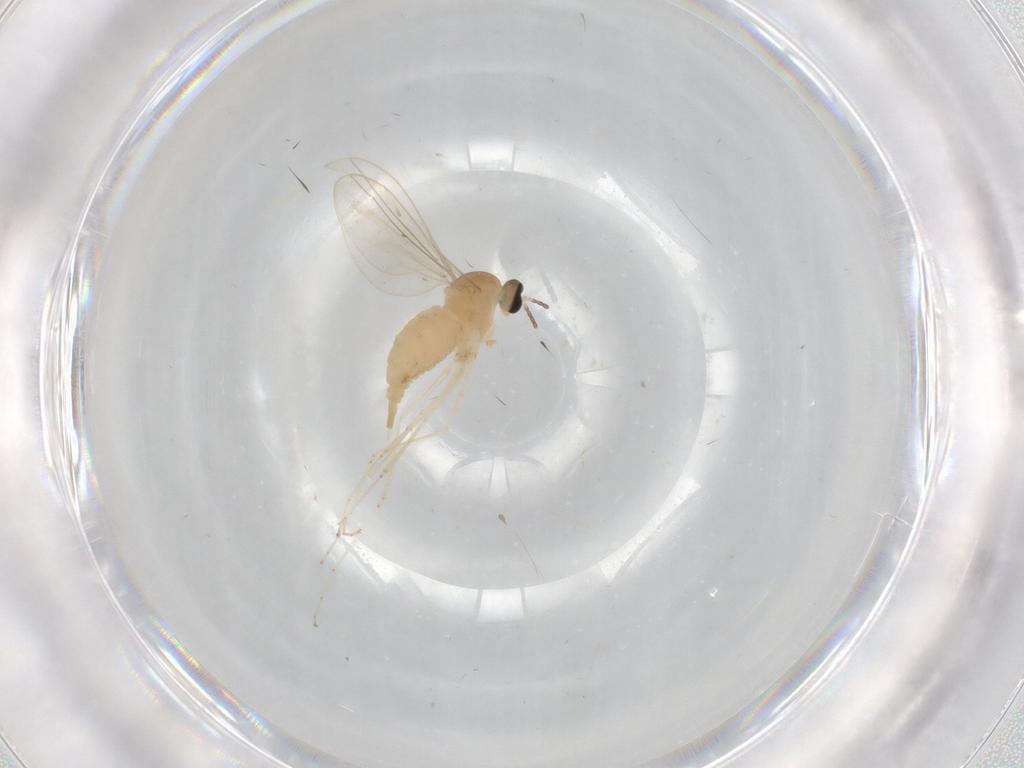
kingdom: Animalia
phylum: Arthropoda
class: Insecta
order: Diptera
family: Cecidomyiidae
